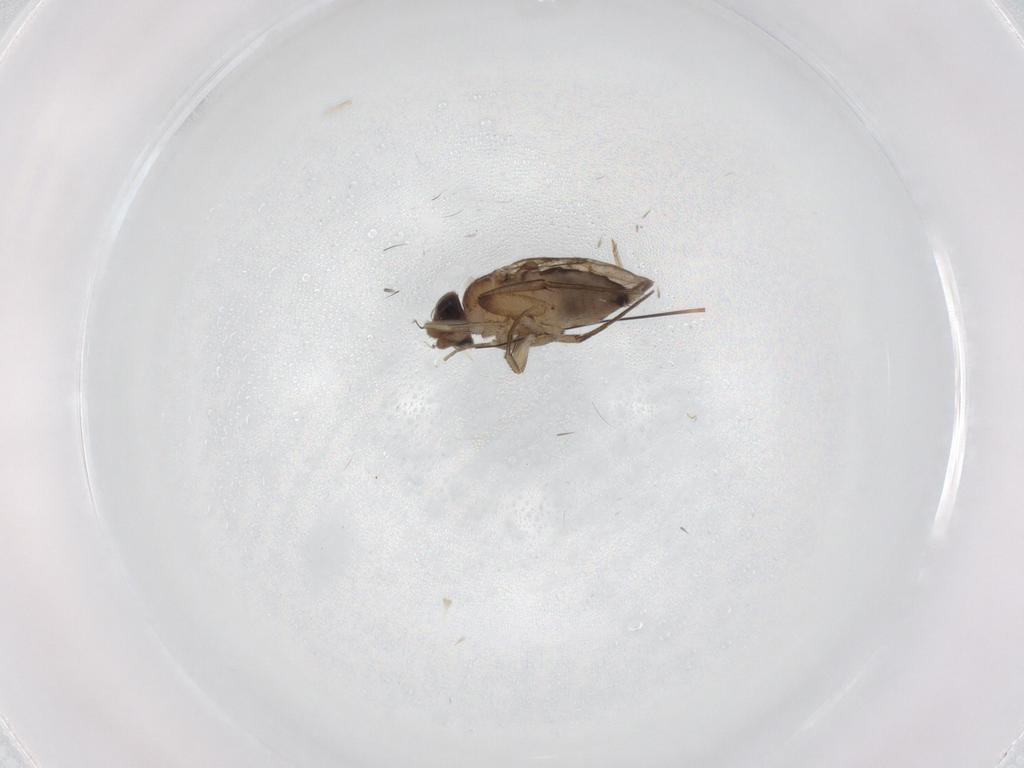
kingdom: Animalia
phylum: Arthropoda
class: Insecta
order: Diptera
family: Phoridae
